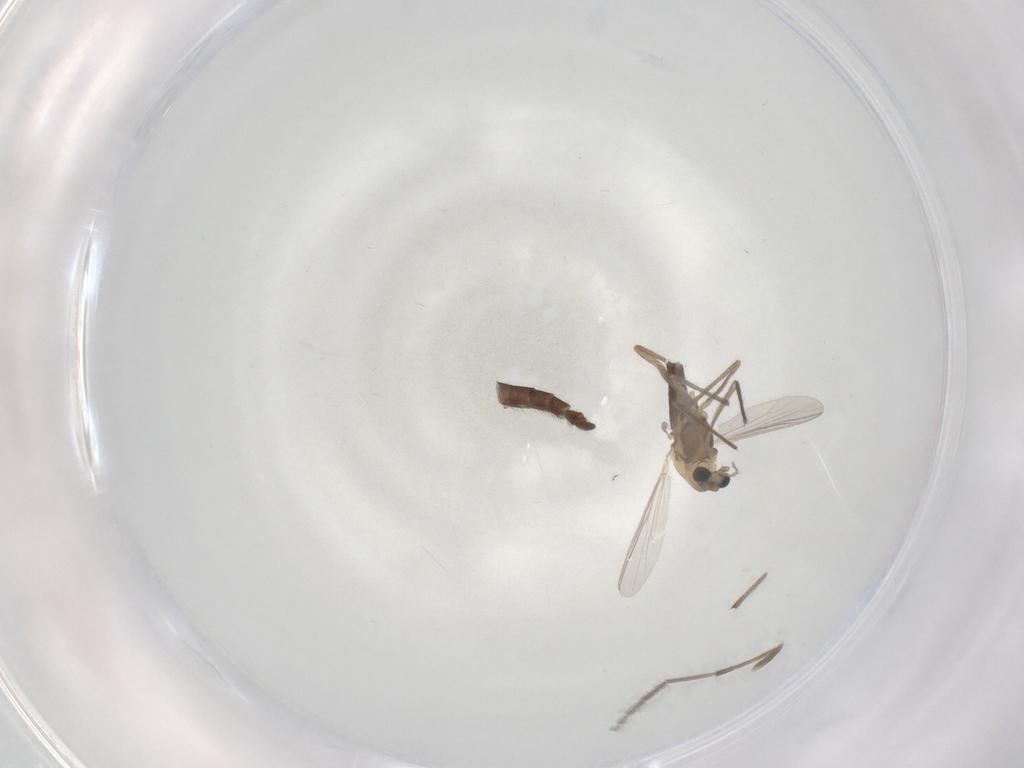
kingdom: Animalia
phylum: Arthropoda
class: Insecta
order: Diptera
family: Chironomidae
